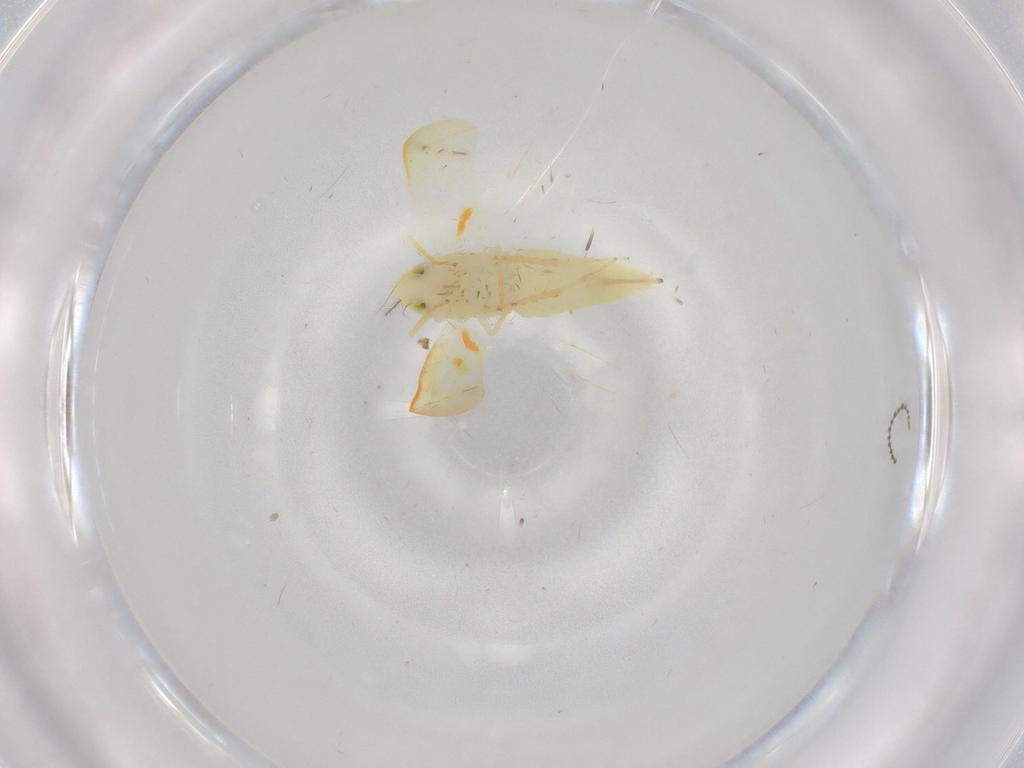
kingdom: Animalia
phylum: Arthropoda
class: Insecta
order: Hemiptera
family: Cicadellidae
